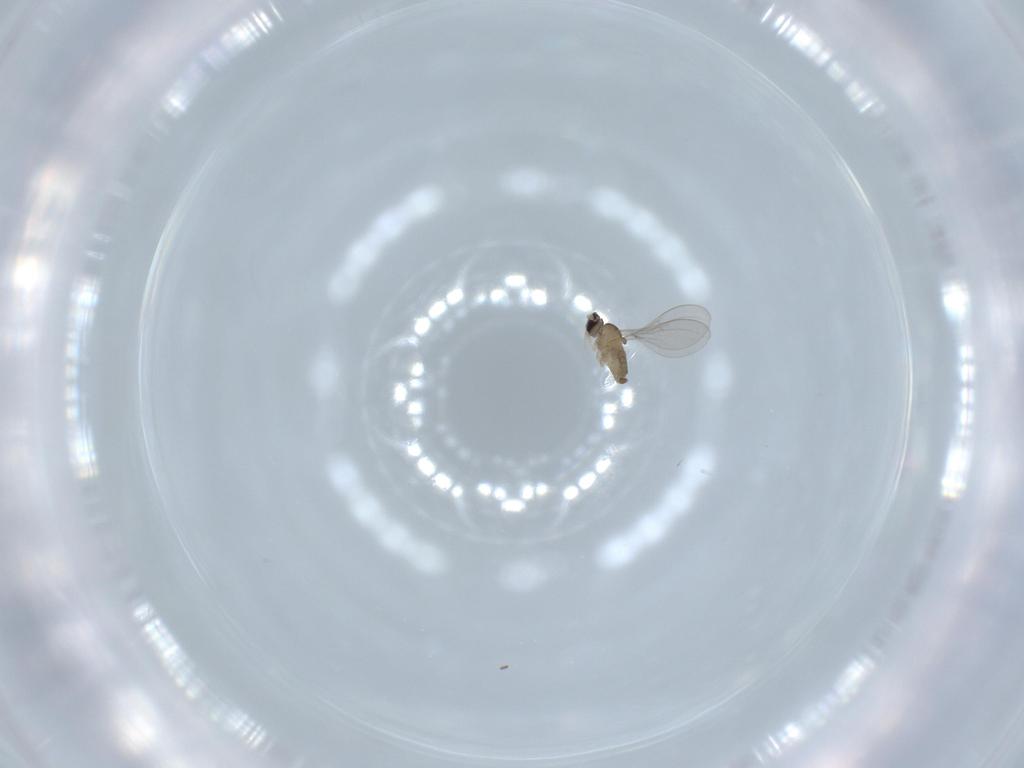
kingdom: Animalia
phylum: Arthropoda
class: Insecta
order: Diptera
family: Cecidomyiidae
